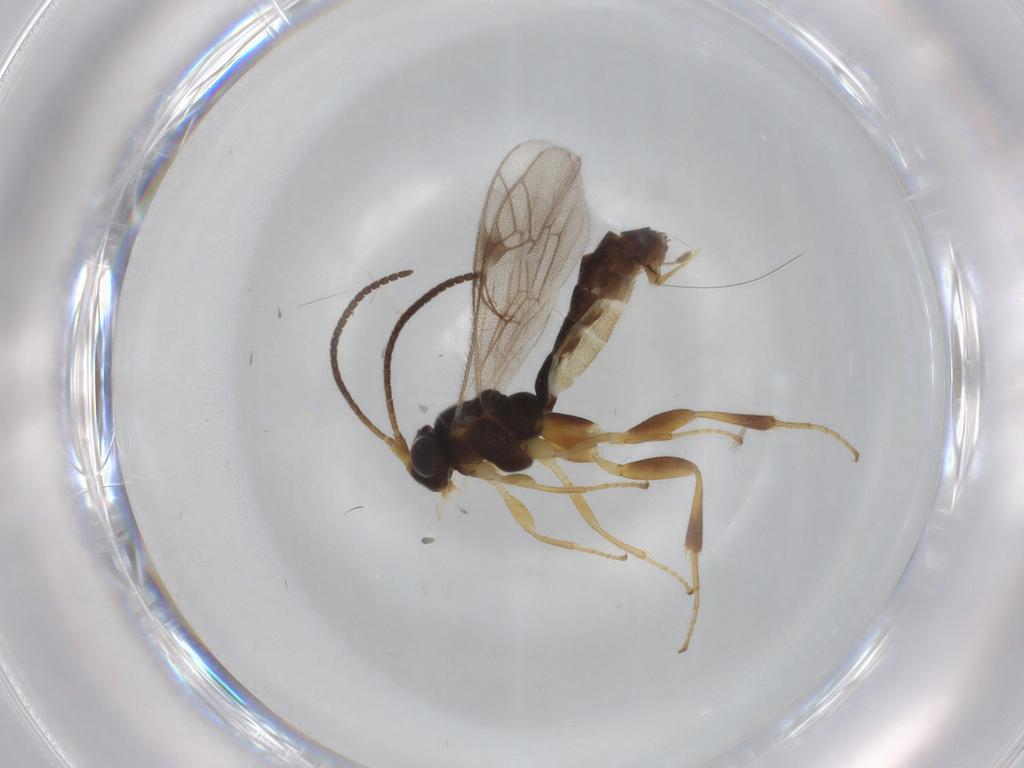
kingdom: Animalia
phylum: Arthropoda
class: Insecta
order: Hymenoptera
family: Ichneumonidae
